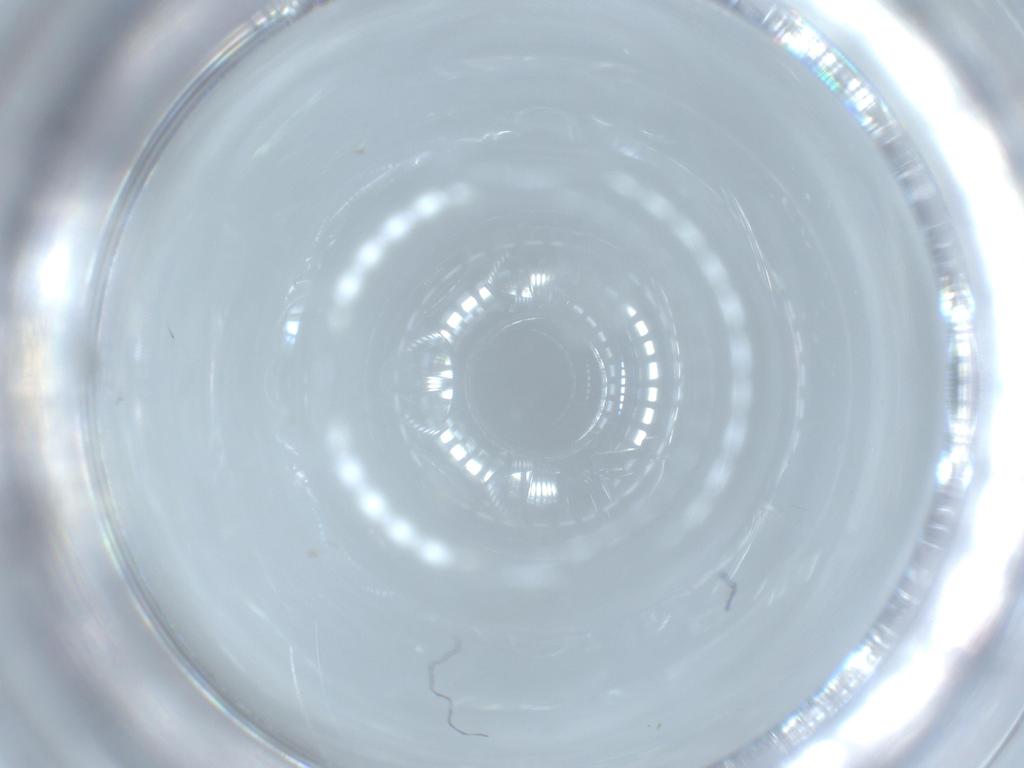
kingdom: Animalia
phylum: Arthropoda
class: Insecta
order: Diptera
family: Cecidomyiidae
